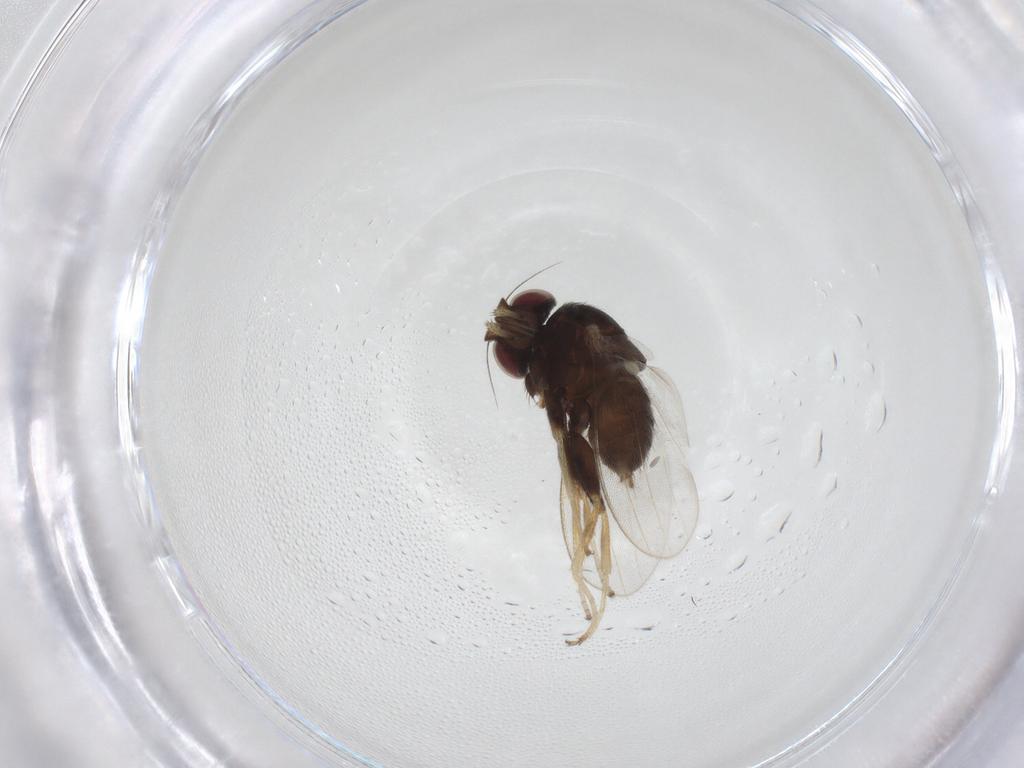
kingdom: Animalia
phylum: Arthropoda
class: Insecta
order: Diptera
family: Milichiidae
